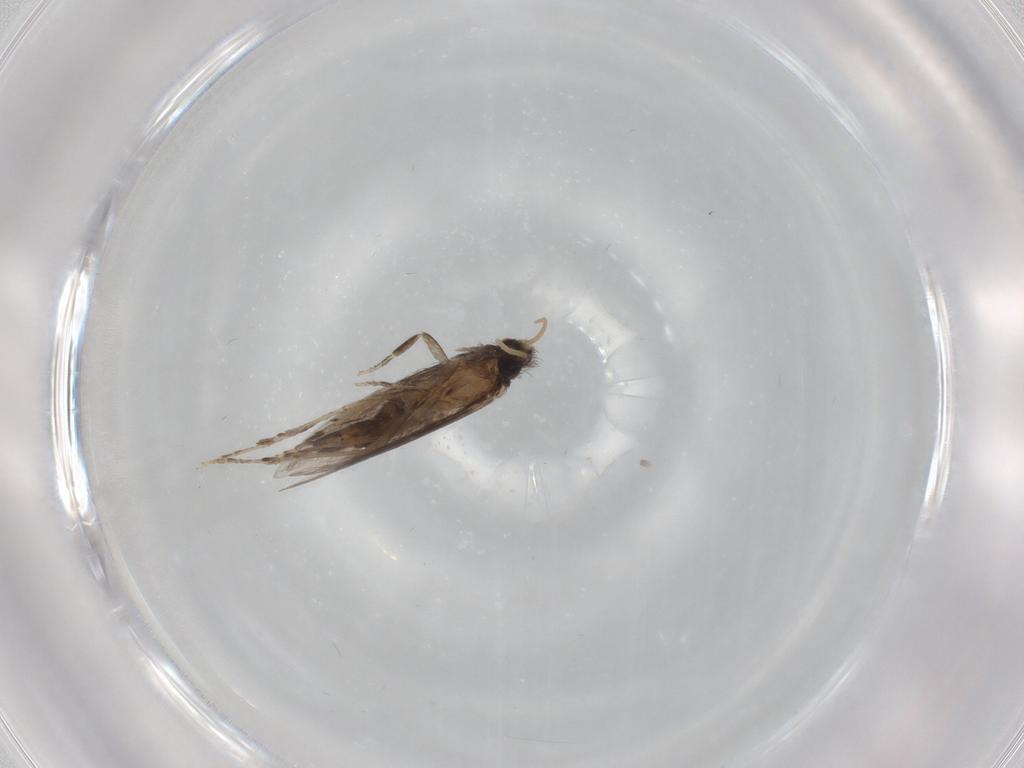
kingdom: Animalia
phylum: Arthropoda
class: Insecta
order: Trichoptera
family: Hydroptilidae
